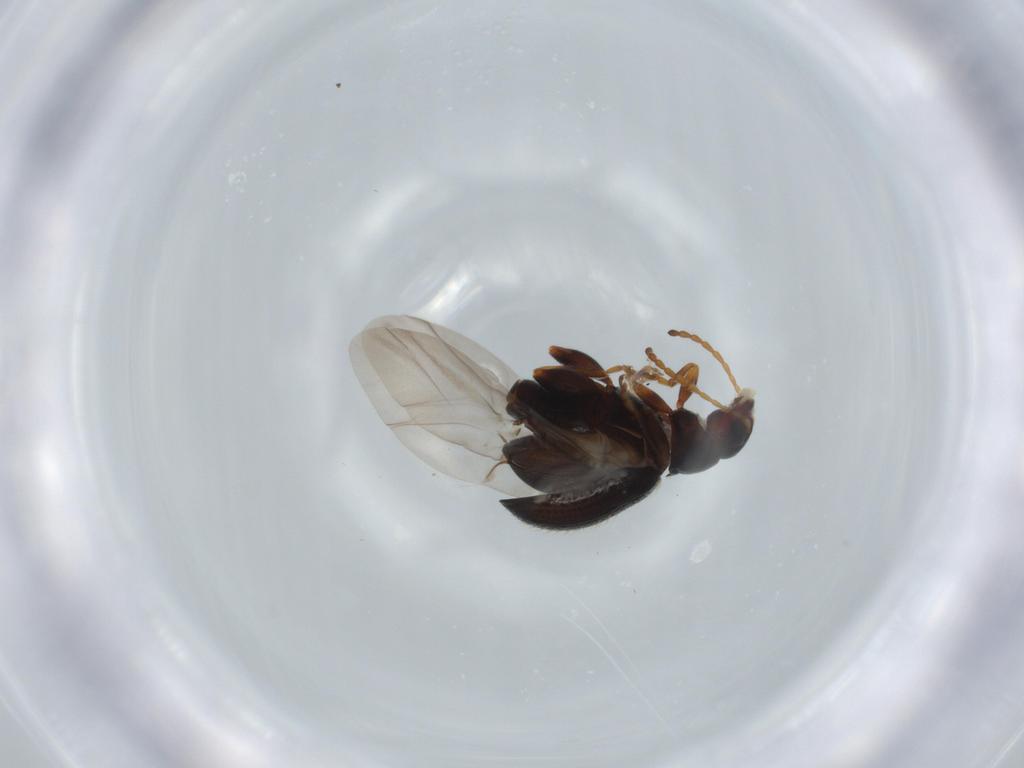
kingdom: Animalia
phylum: Arthropoda
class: Insecta
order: Coleoptera
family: Chrysomelidae
